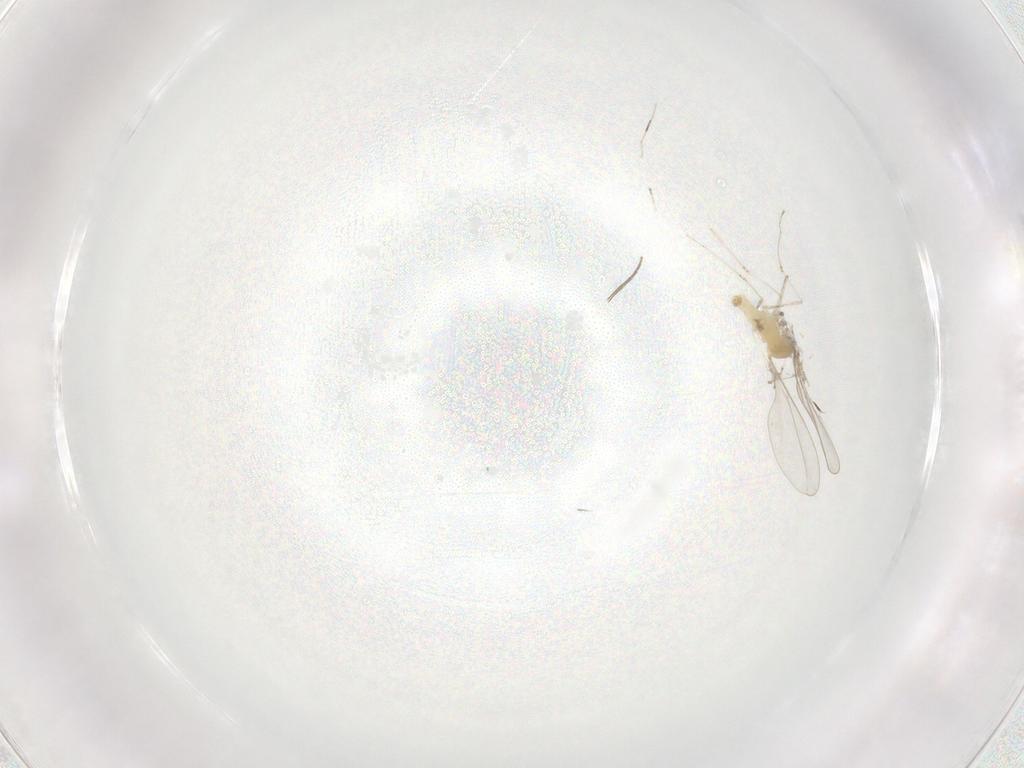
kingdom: Animalia
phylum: Arthropoda
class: Insecta
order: Diptera
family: Cecidomyiidae
